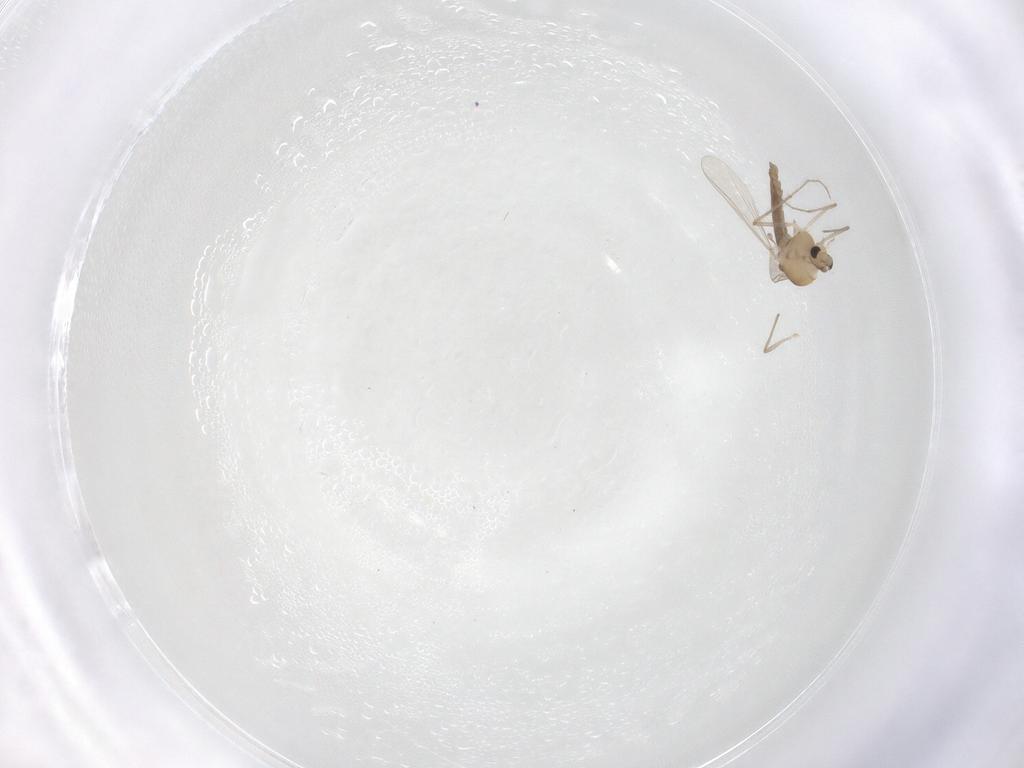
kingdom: Animalia
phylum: Arthropoda
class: Insecta
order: Diptera
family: Chironomidae
